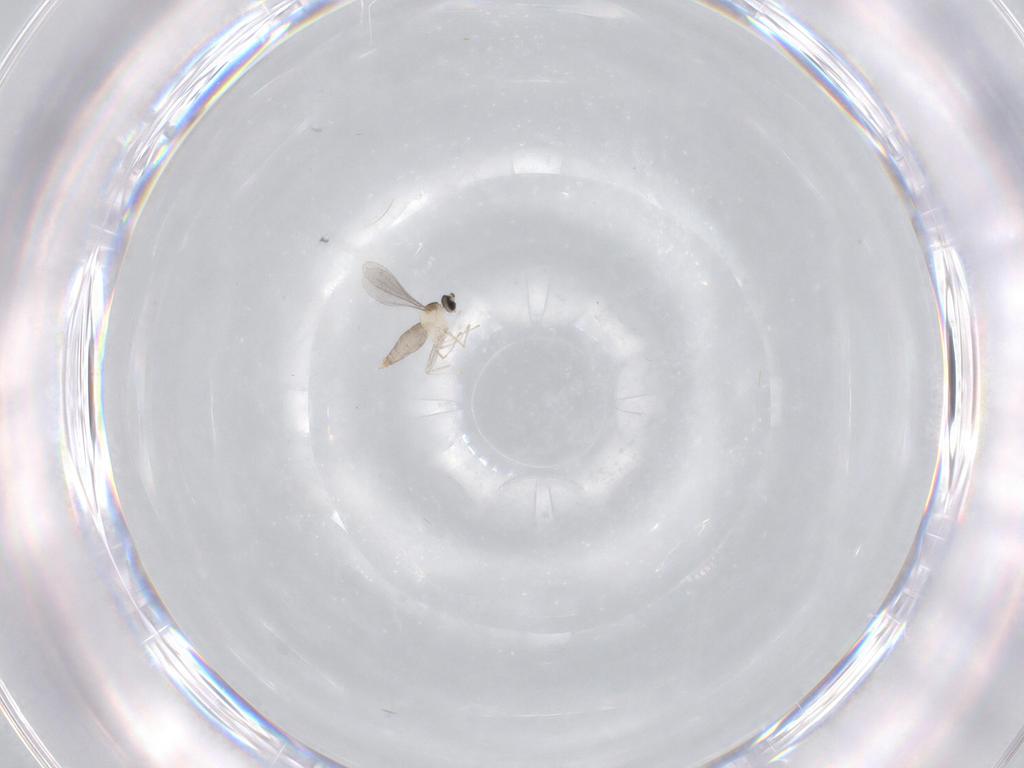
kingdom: Animalia
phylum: Arthropoda
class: Insecta
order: Diptera
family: Cecidomyiidae
